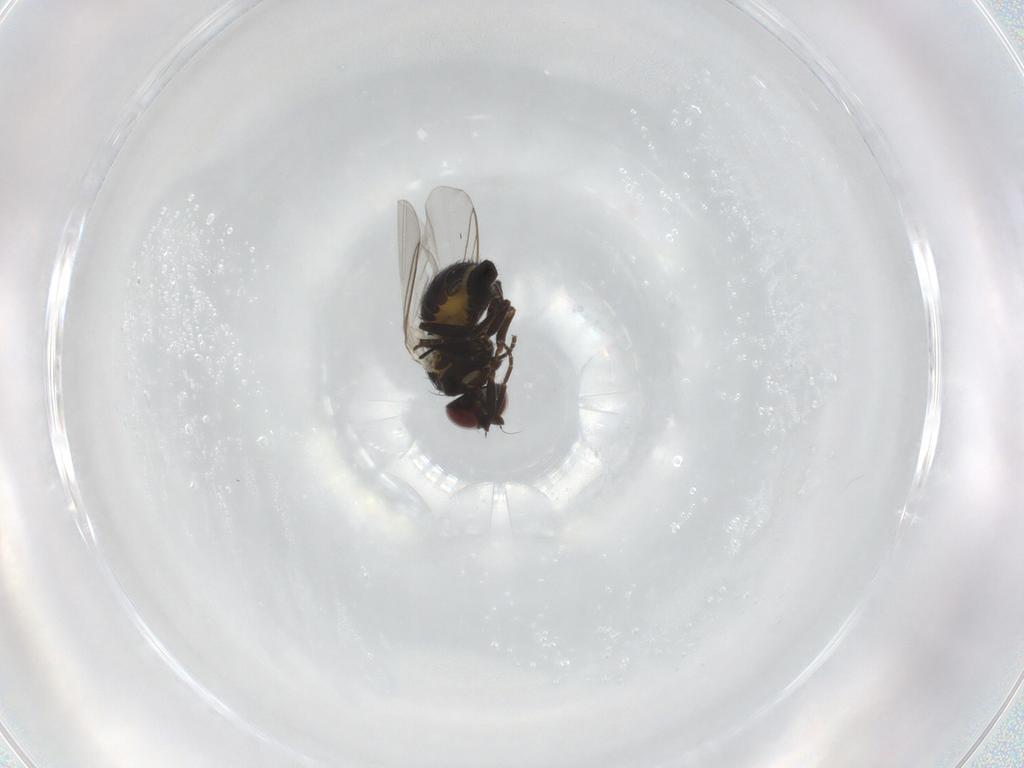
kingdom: Animalia
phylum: Arthropoda
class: Insecta
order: Diptera
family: Agromyzidae
